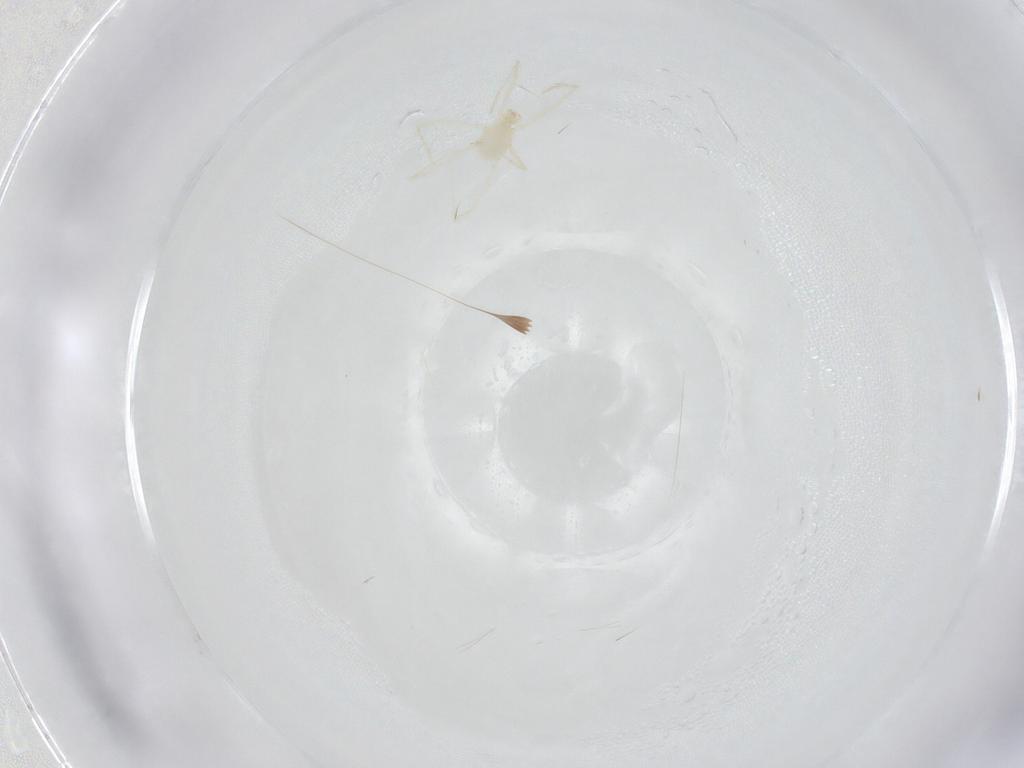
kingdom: Animalia
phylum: Arthropoda
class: Arachnida
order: Trombidiformes
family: Erythraeidae
